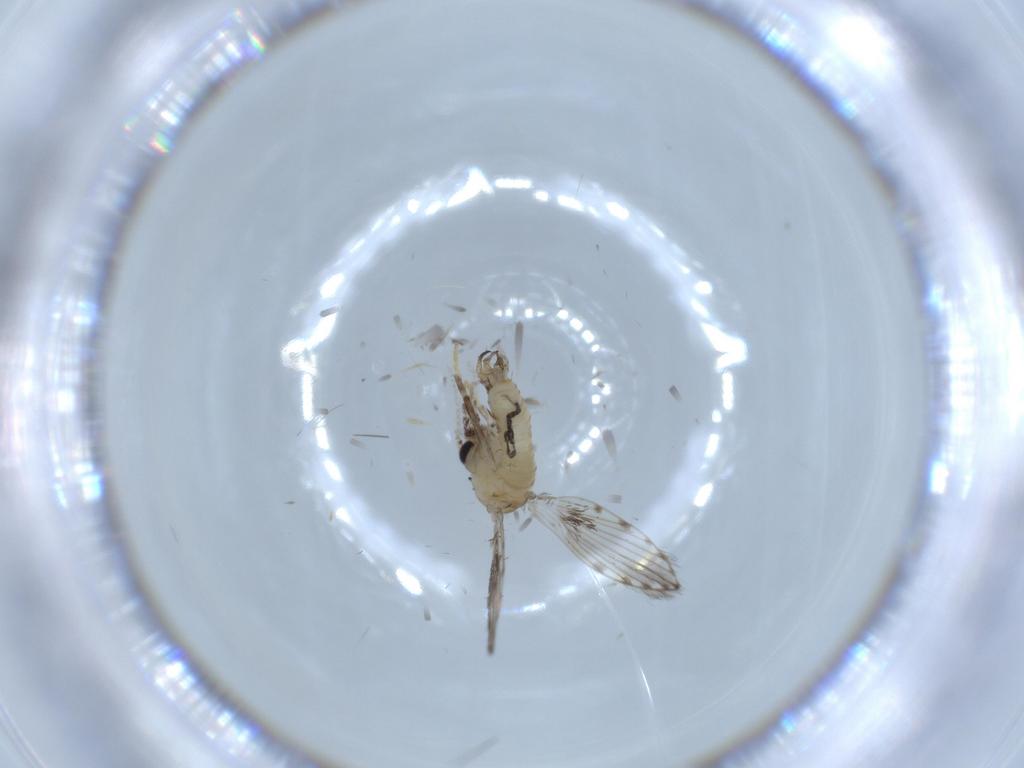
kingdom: Animalia
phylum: Arthropoda
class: Insecta
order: Diptera
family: Psychodidae
